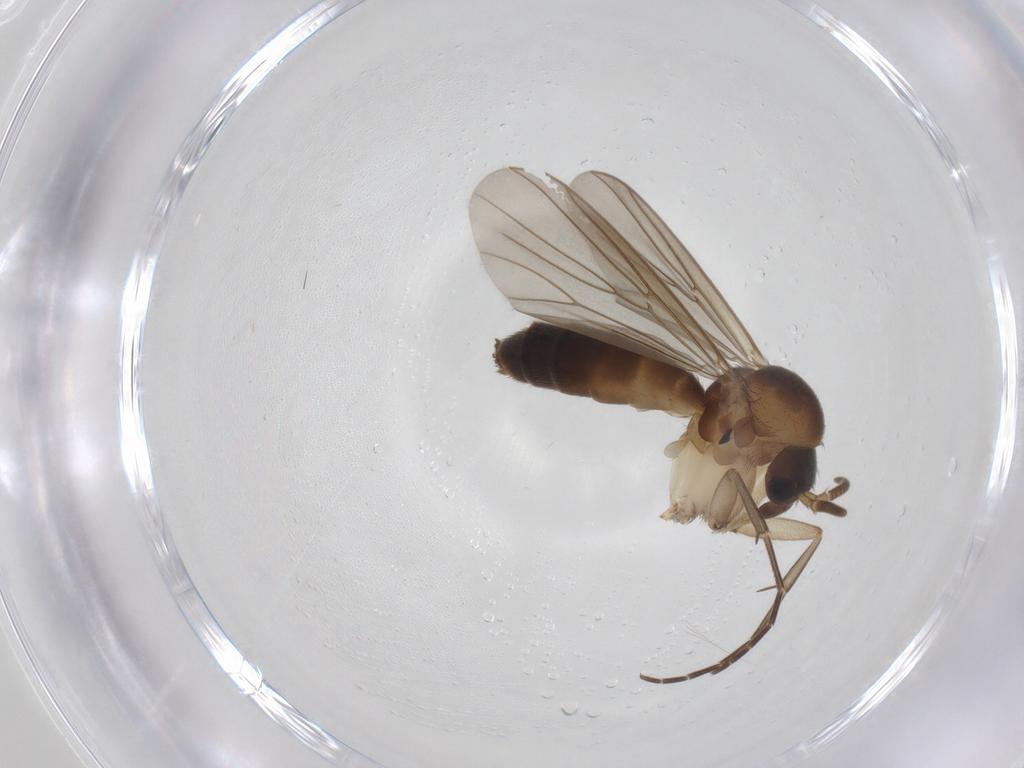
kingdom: Animalia
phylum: Arthropoda
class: Insecta
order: Diptera
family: Mycetophilidae
